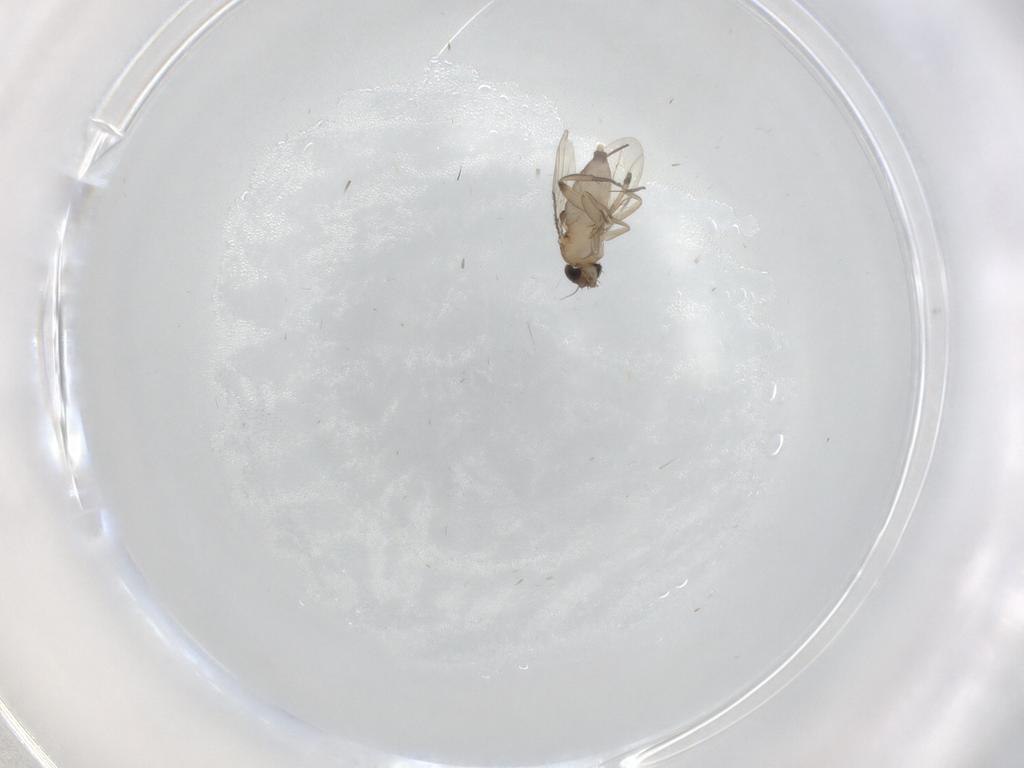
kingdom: Animalia
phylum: Arthropoda
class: Insecta
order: Diptera
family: Phoridae
